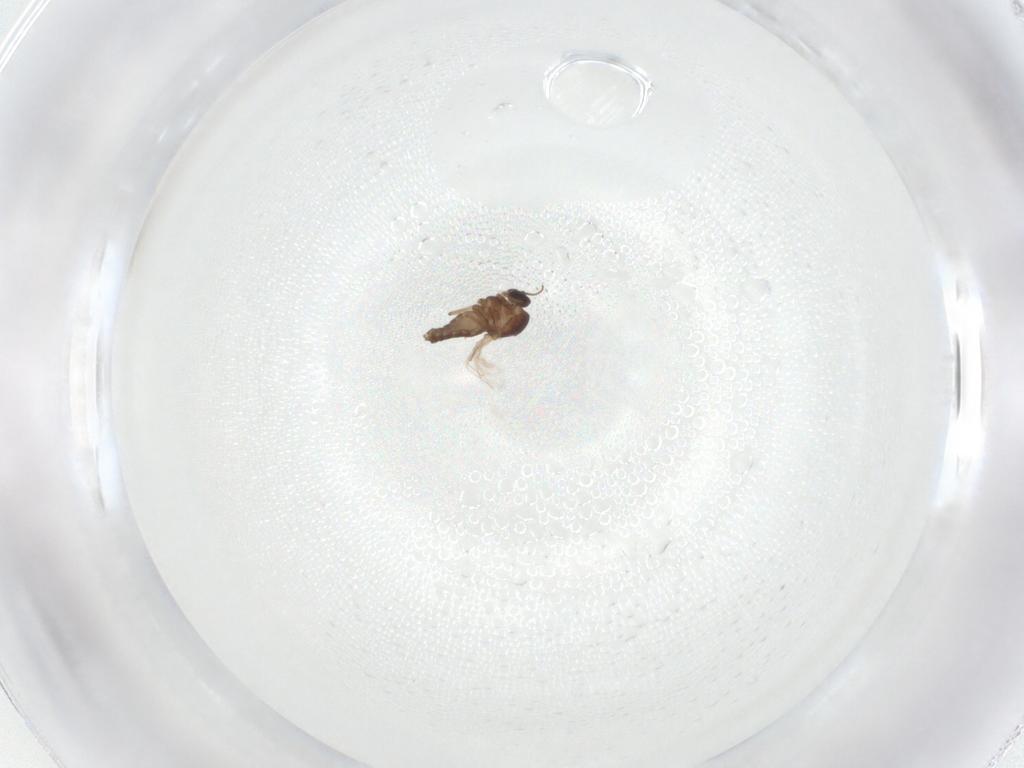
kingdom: Animalia
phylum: Arthropoda
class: Insecta
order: Diptera
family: Ceratopogonidae
